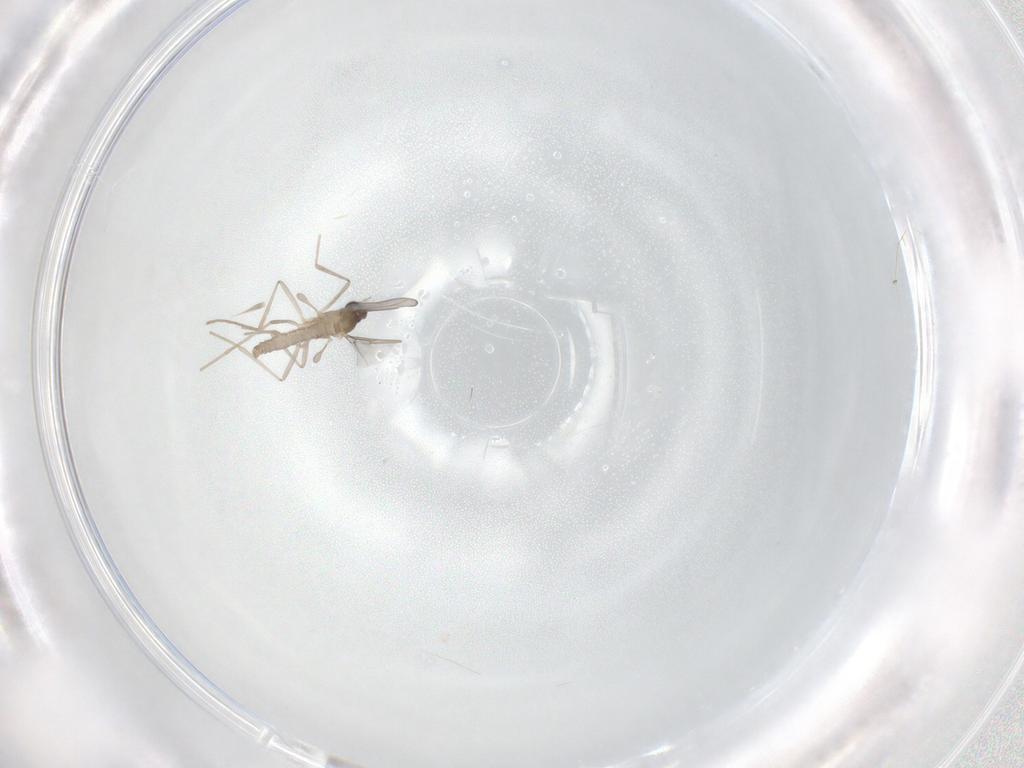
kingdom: Animalia
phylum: Arthropoda
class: Insecta
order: Diptera
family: Cecidomyiidae
